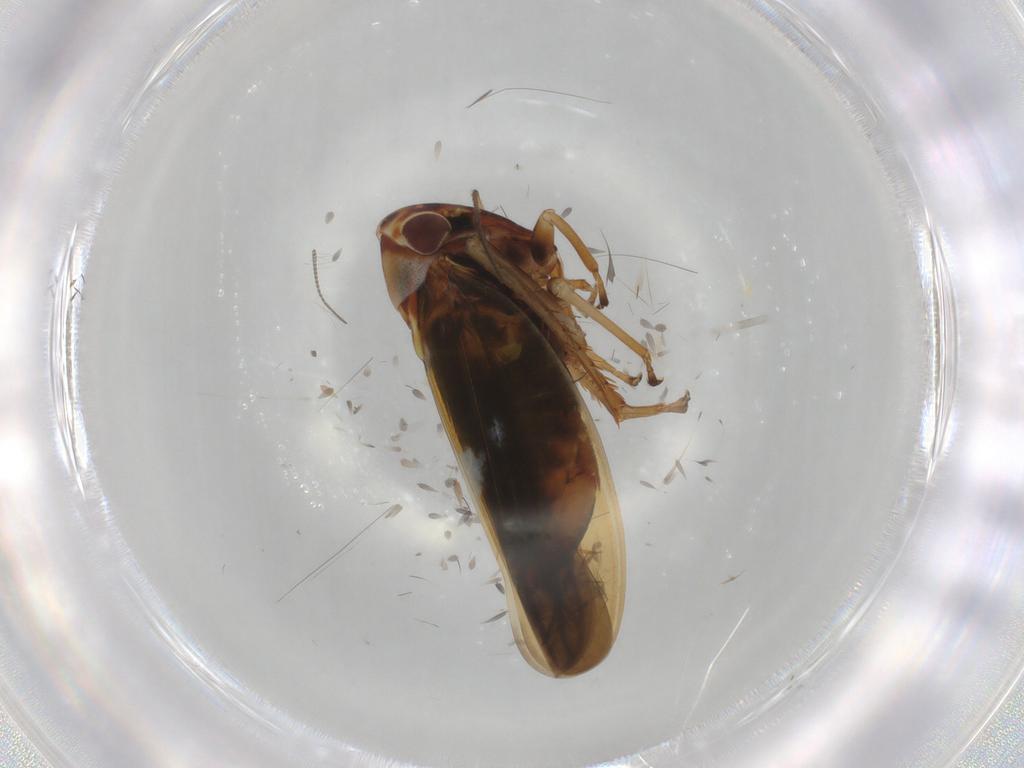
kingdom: Animalia
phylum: Arthropoda
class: Insecta
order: Hemiptera
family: Cicadellidae
